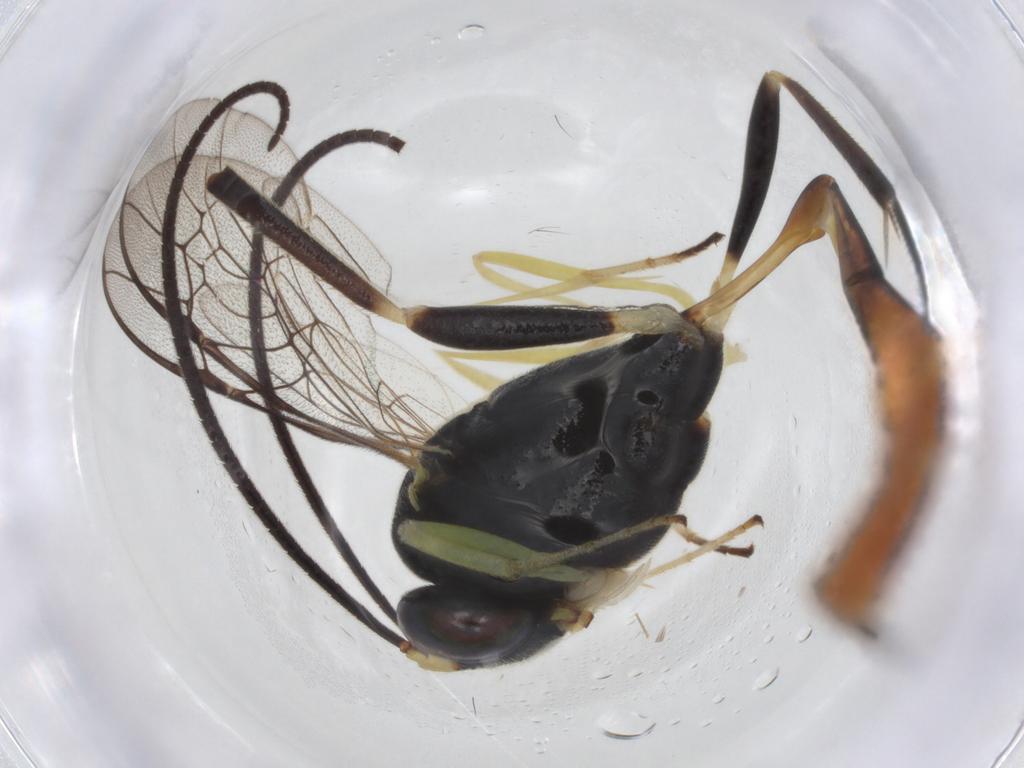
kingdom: Animalia
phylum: Arthropoda
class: Insecta
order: Hymenoptera
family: Ichneumonidae
